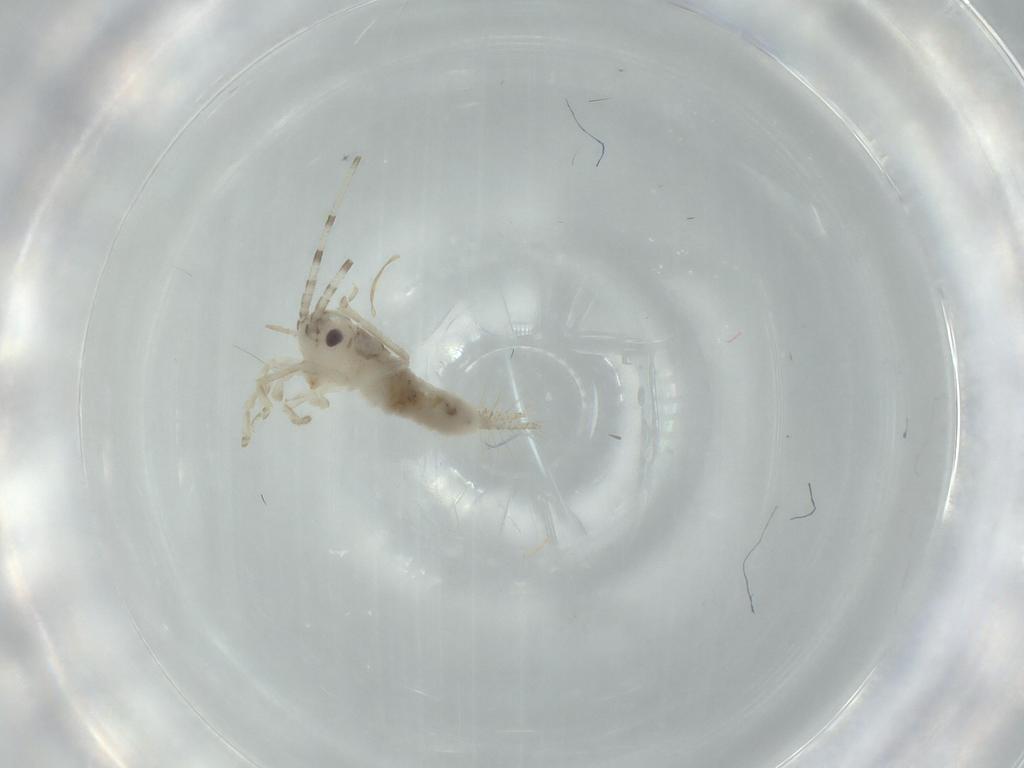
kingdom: Animalia
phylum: Arthropoda
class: Insecta
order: Orthoptera
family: Trigonidiidae
